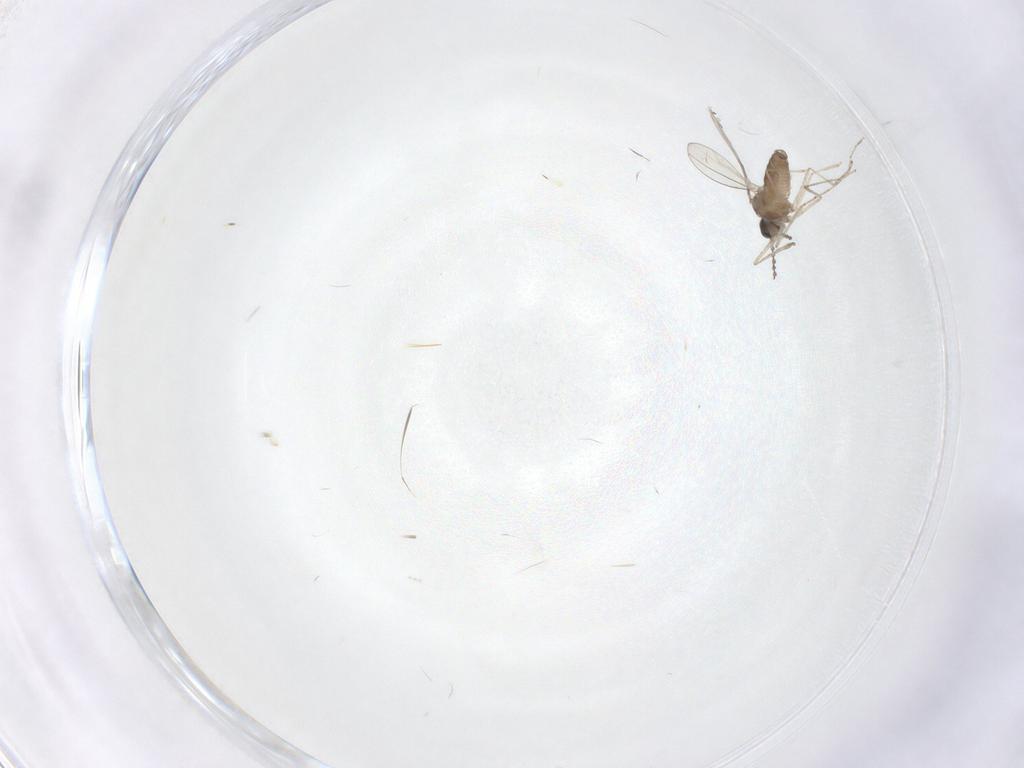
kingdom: Animalia
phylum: Arthropoda
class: Insecta
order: Diptera
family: Cecidomyiidae
